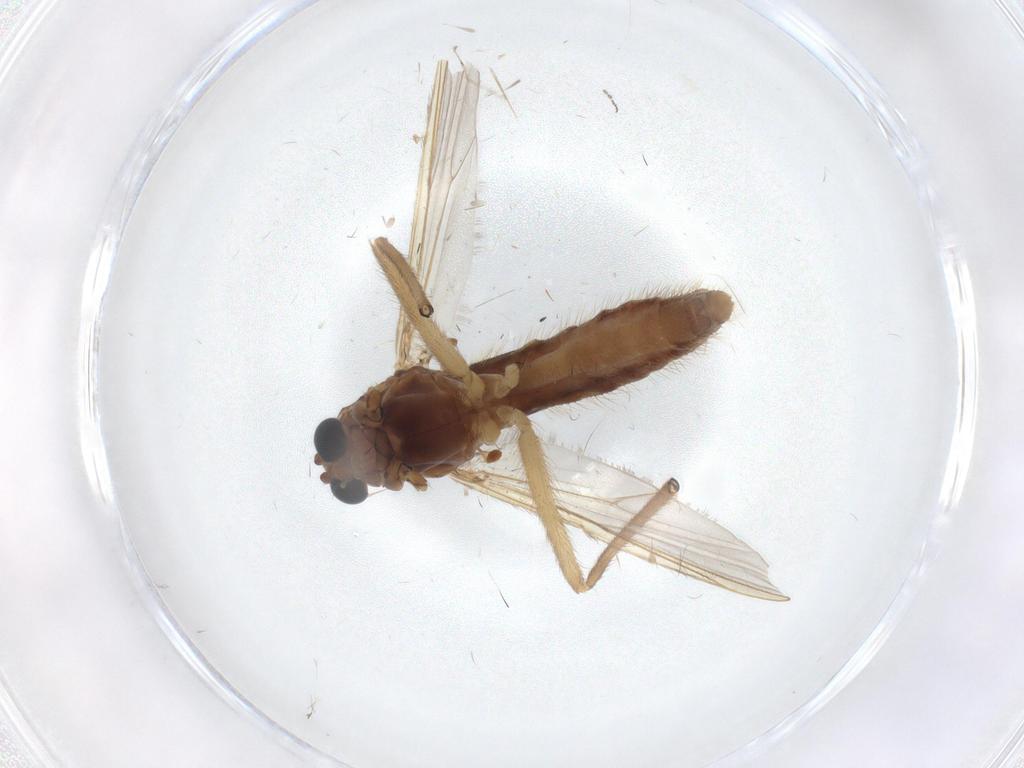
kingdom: Animalia
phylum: Arthropoda
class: Insecta
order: Diptera
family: Chironomidae
